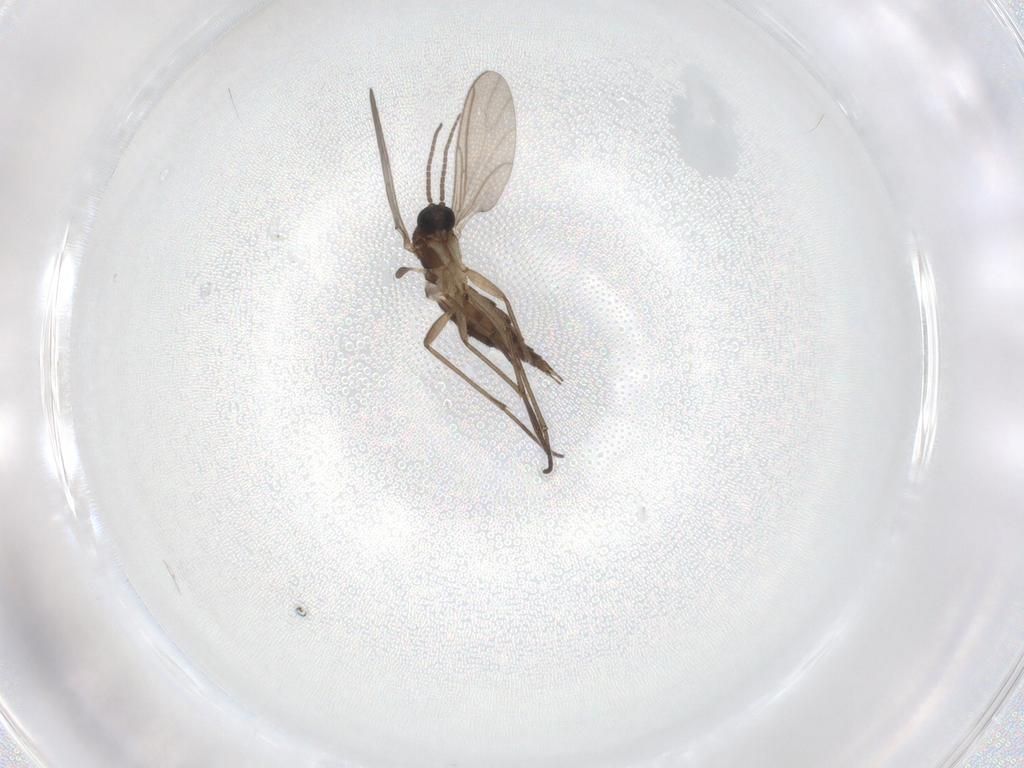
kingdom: Animalia
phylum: Arthropoda
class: Insecta
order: Diptera
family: Sciaridae
